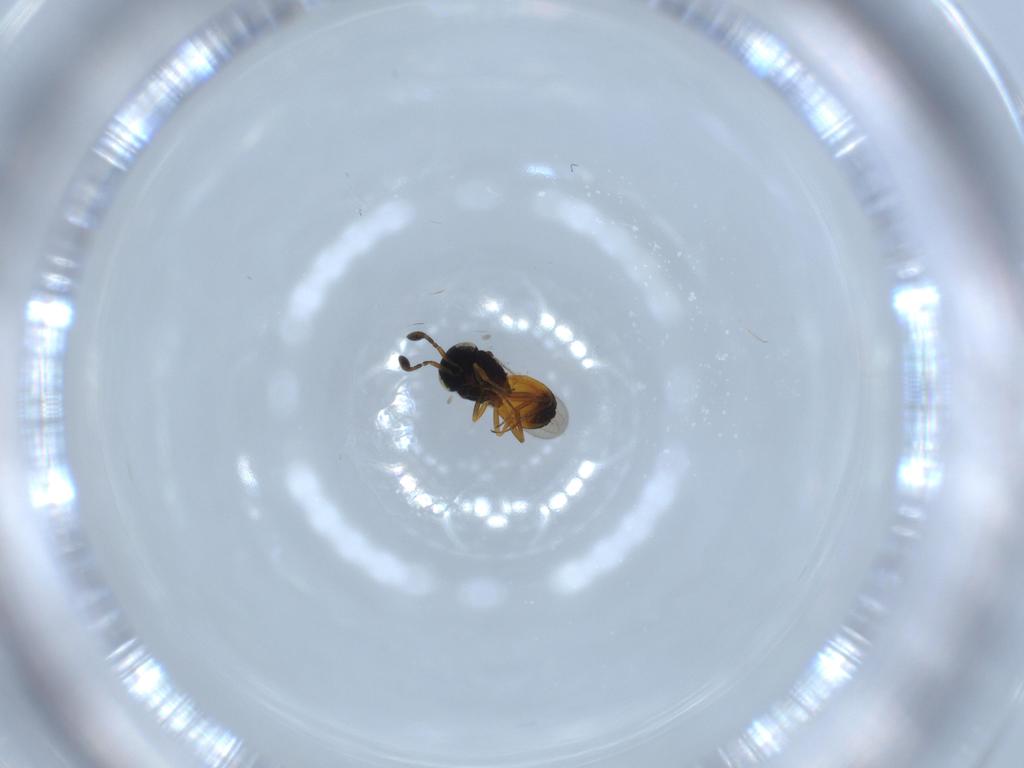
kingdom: Animalia
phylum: Arthropoda
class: Insecta
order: Hymenoptera
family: Scelionidae
